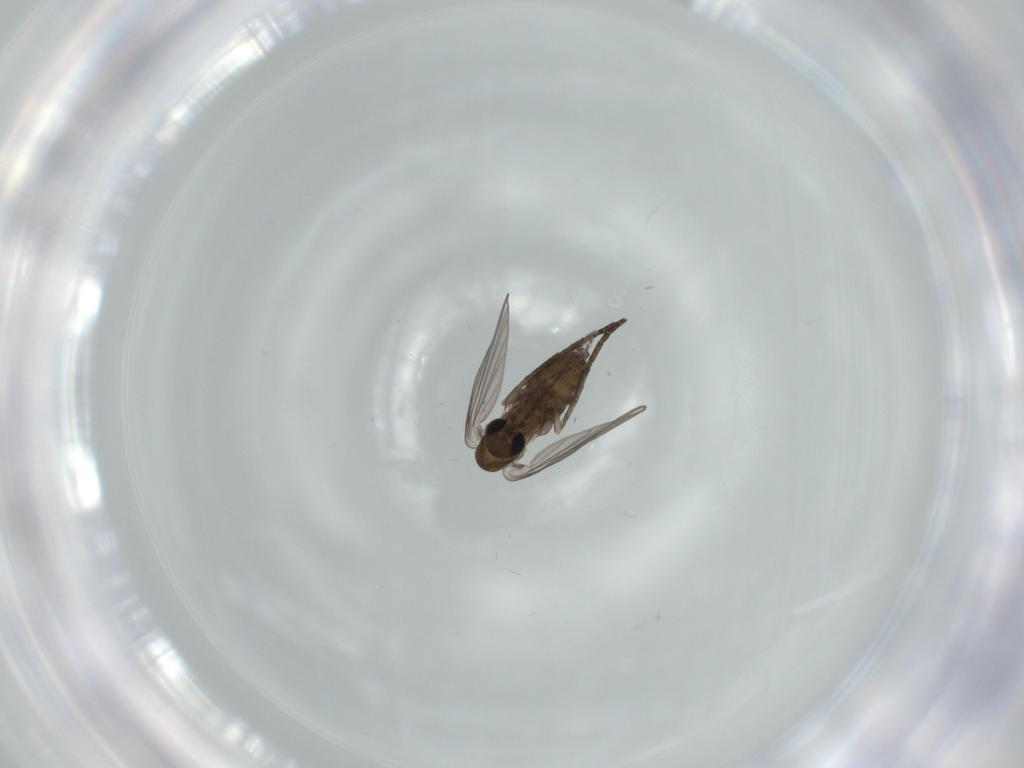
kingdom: Animalia
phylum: Arthropoda
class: Insecta
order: Diptera
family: Psychodidae
